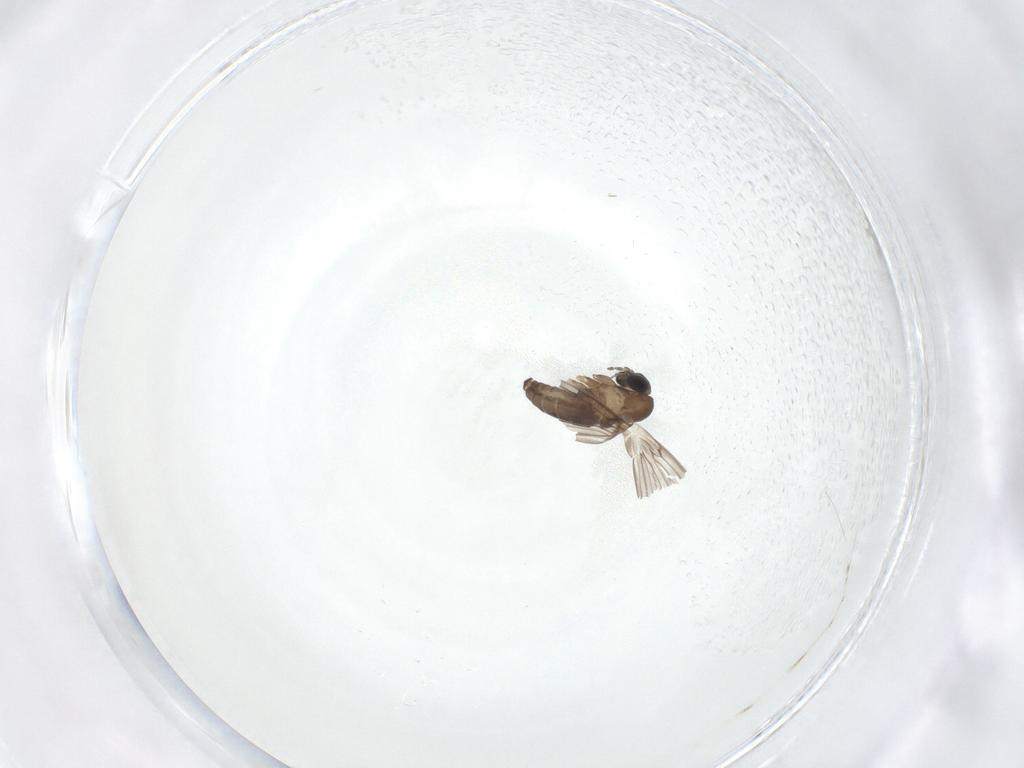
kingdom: Animalia
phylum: Arthropoda
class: Insecta
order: Diptera
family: Psychodidae
